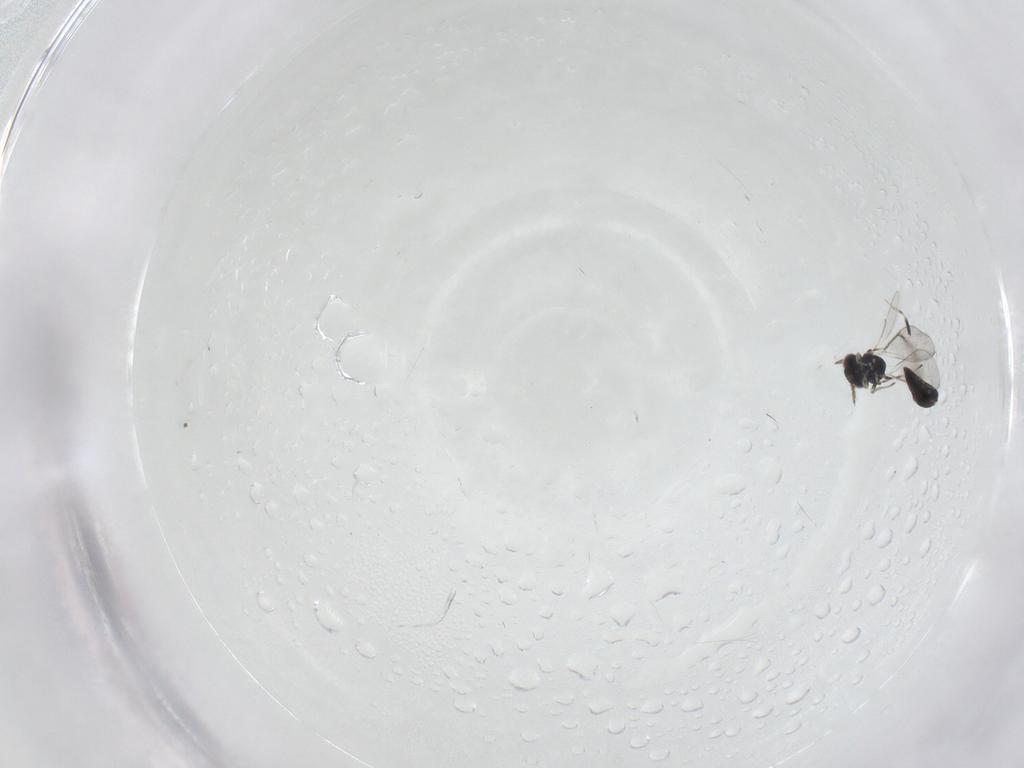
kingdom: Animalia
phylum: Arthropoda
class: Insecta
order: Hymenoptera
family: Eulophidae
